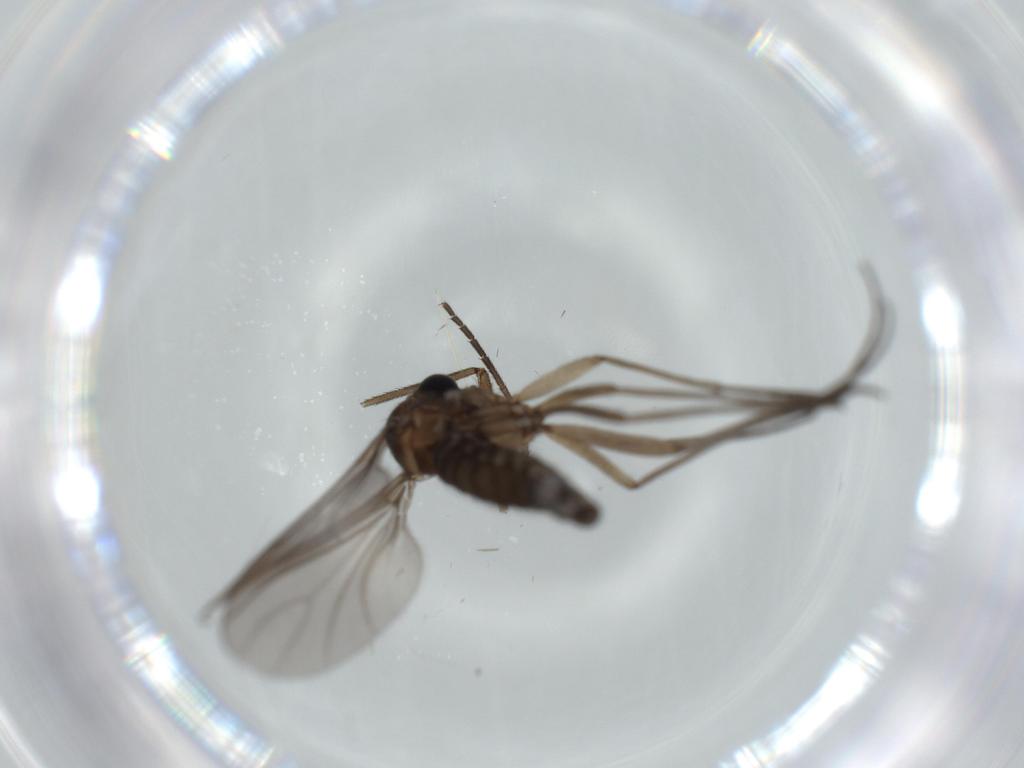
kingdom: Animalia
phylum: Arthropoda
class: Insecta
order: Diptera
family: Sciaridae
